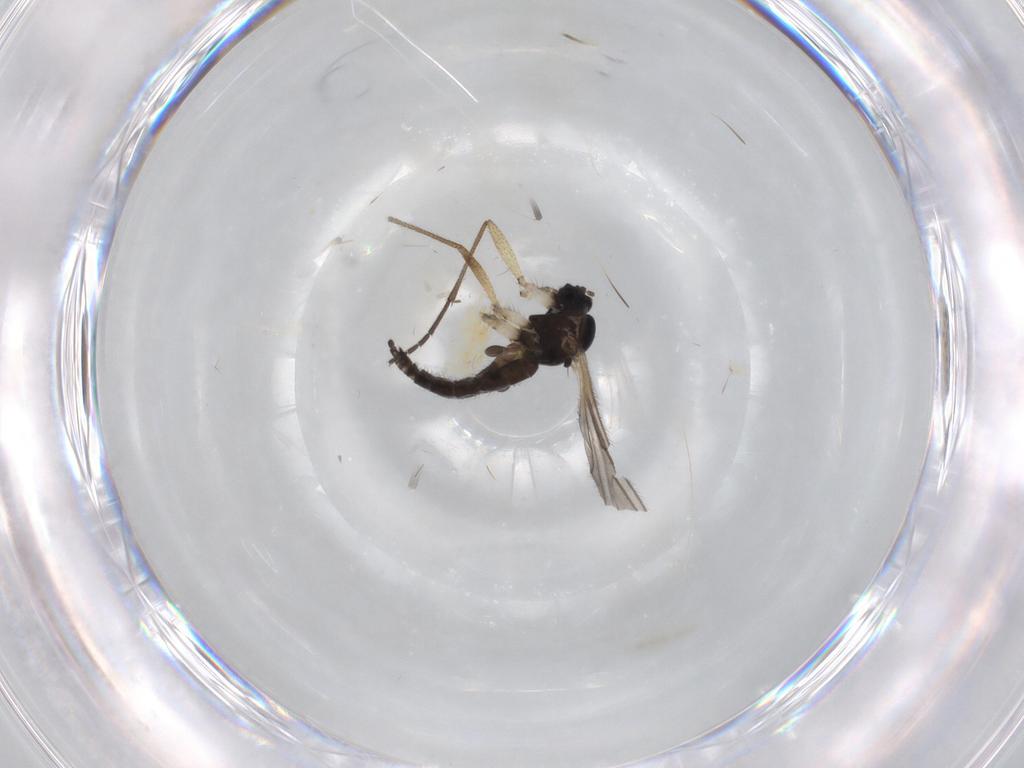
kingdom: Animalia
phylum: Arthropoda
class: Insecta
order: Diptera
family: Sciaridae
